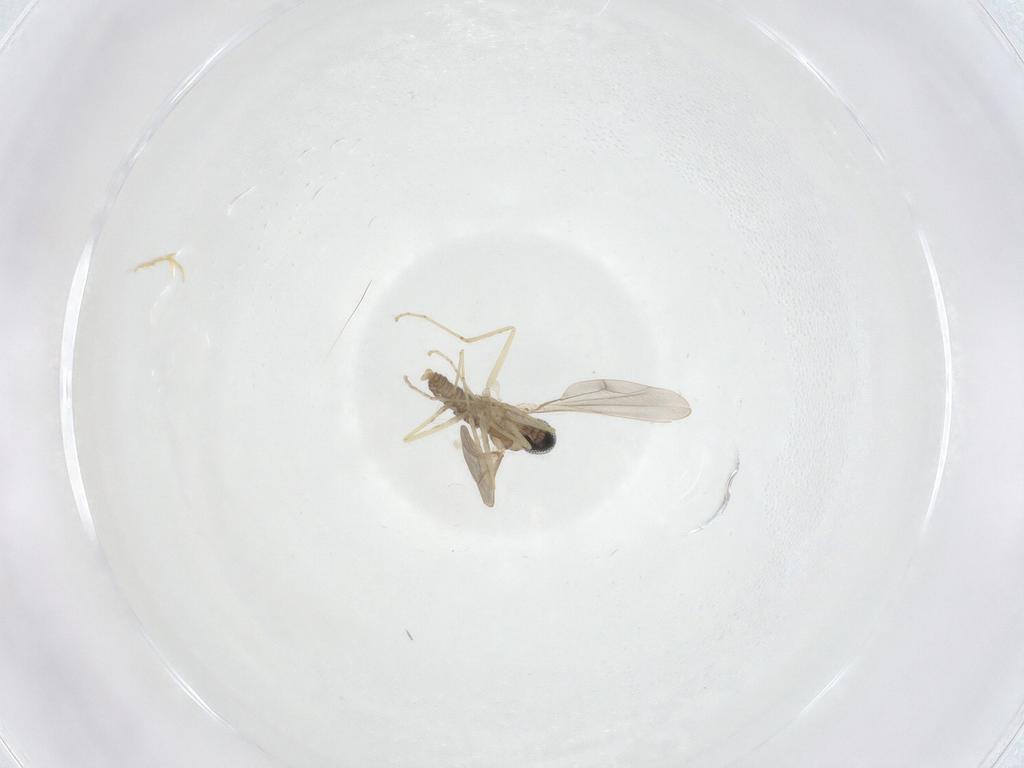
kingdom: Animalia
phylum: Arthropoda
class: Insecta
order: Diptera
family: Cecidomyiidae
